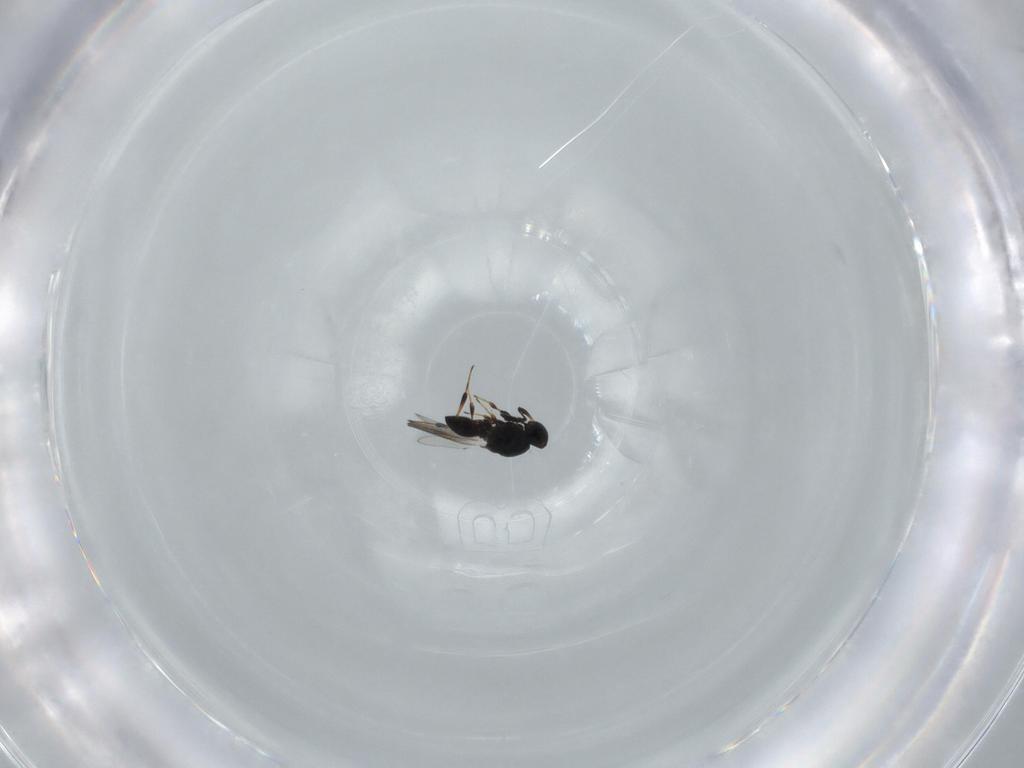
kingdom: Animalia
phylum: Arthropoda
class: Insecta
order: Hymenoptera
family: Platygastridae
